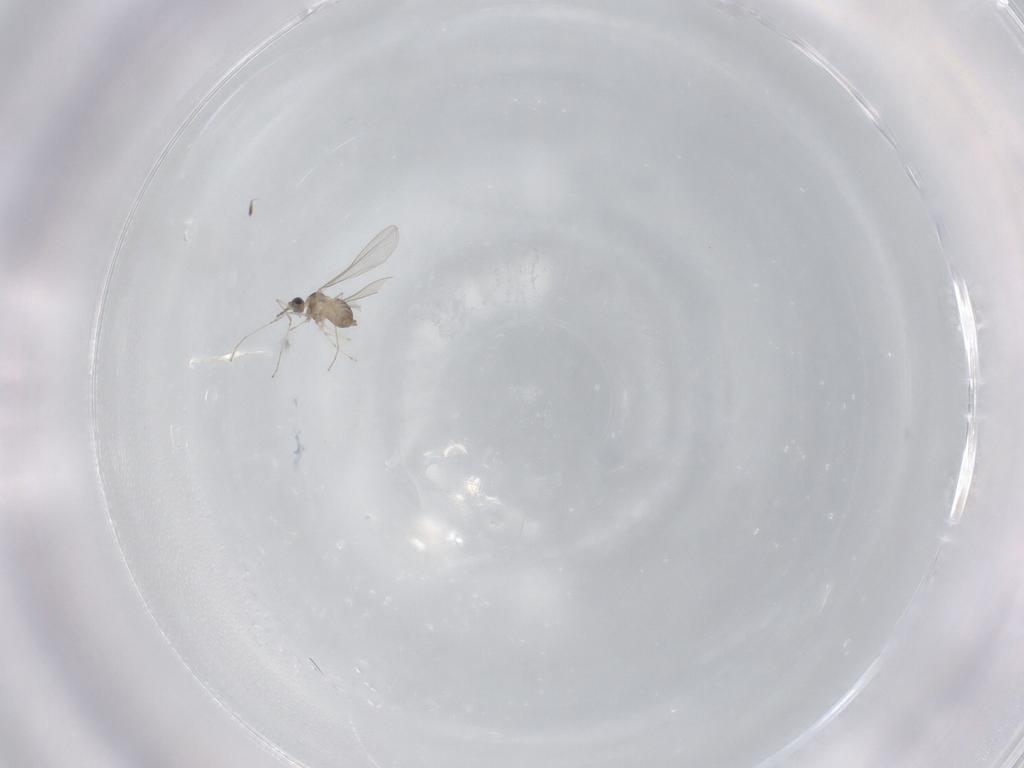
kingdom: Animalia
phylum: Arthropoda
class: Insecta
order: Diptera
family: Cecidomyiidae
